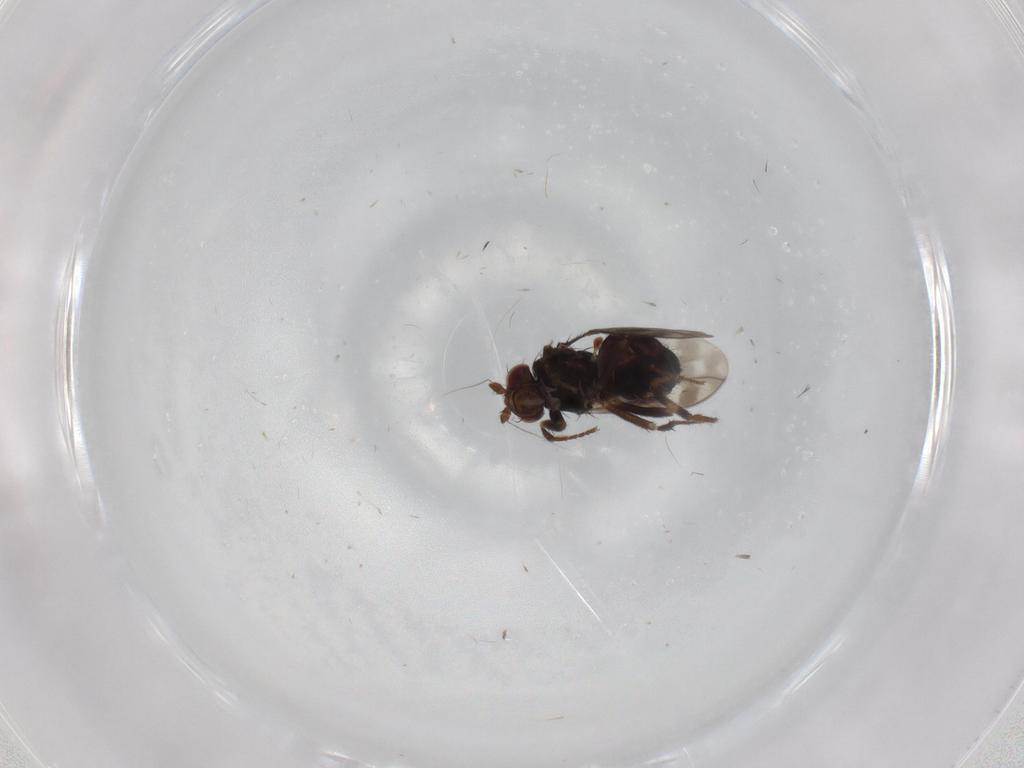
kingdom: Animalia
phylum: Arthropoda
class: Insecta
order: Diptera
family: Sphaeroceridae
